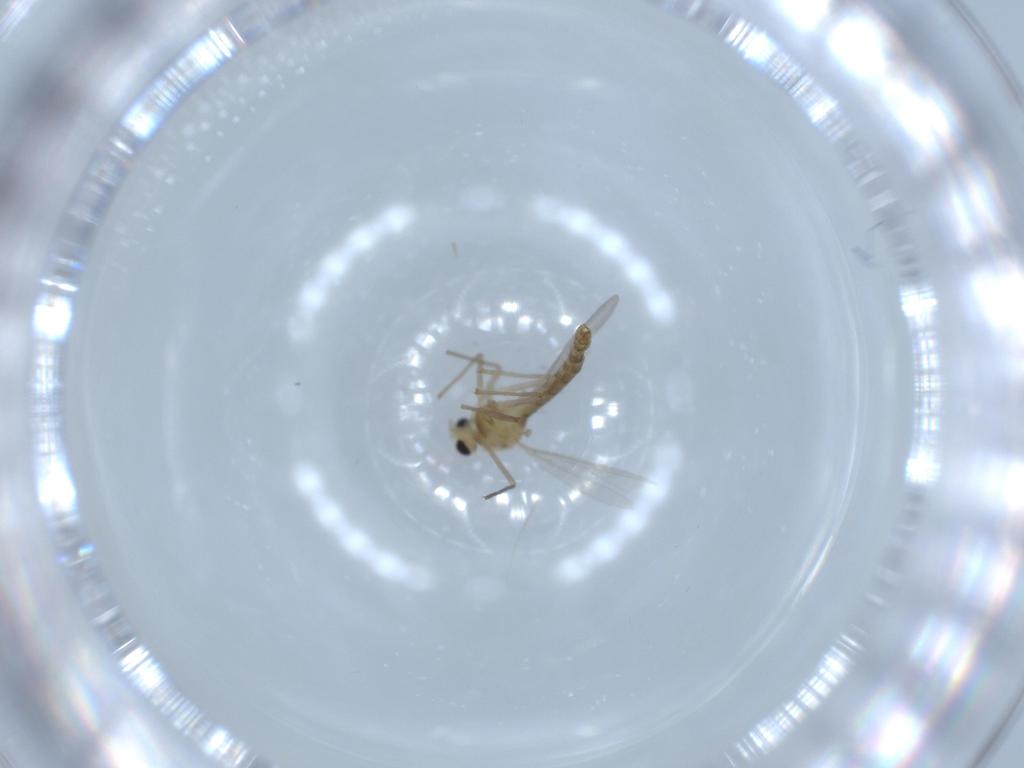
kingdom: Animalia
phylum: Arthropoda
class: Insecta
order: Diptera
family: Chironomidae
